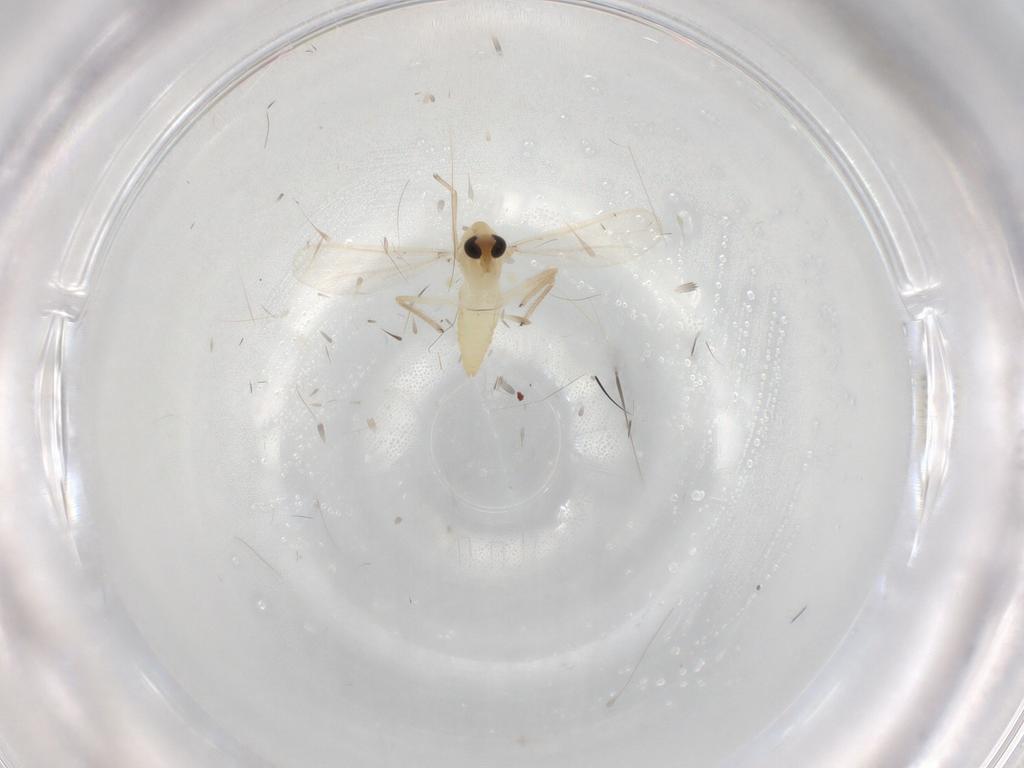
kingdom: Animalia
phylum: Arthropoda
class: Insecta
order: Diptera
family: Chironomidae
